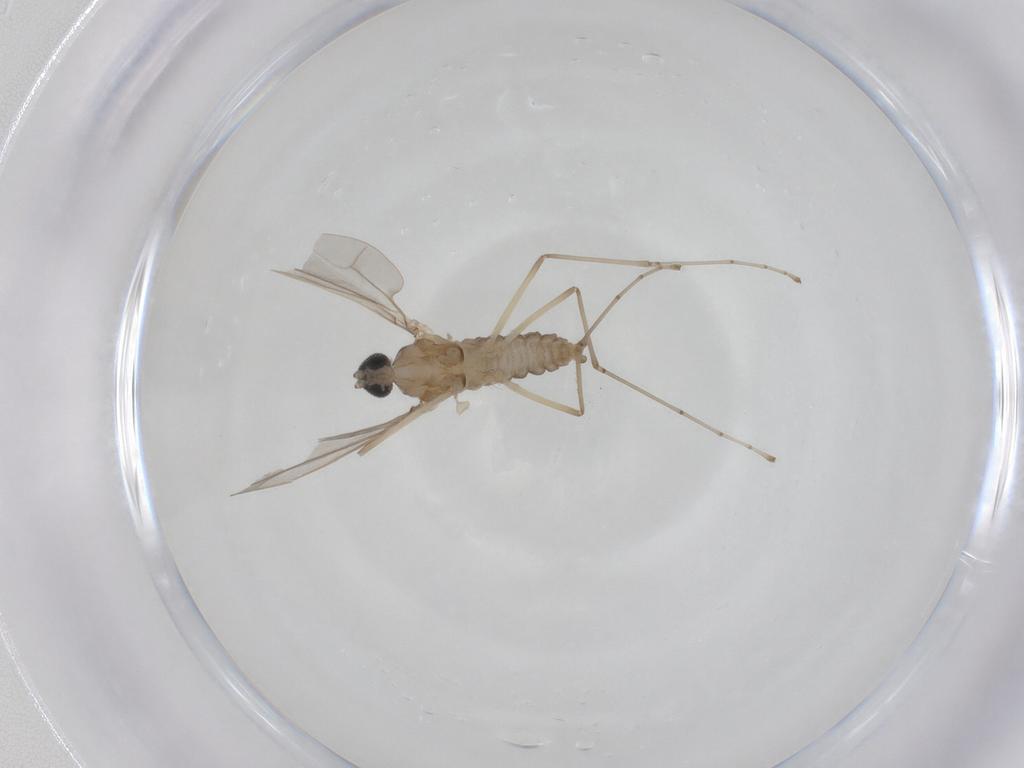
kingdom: Animalia
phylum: Arthropoda
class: Insecta
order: Diptera
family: Cecidomyiidae
